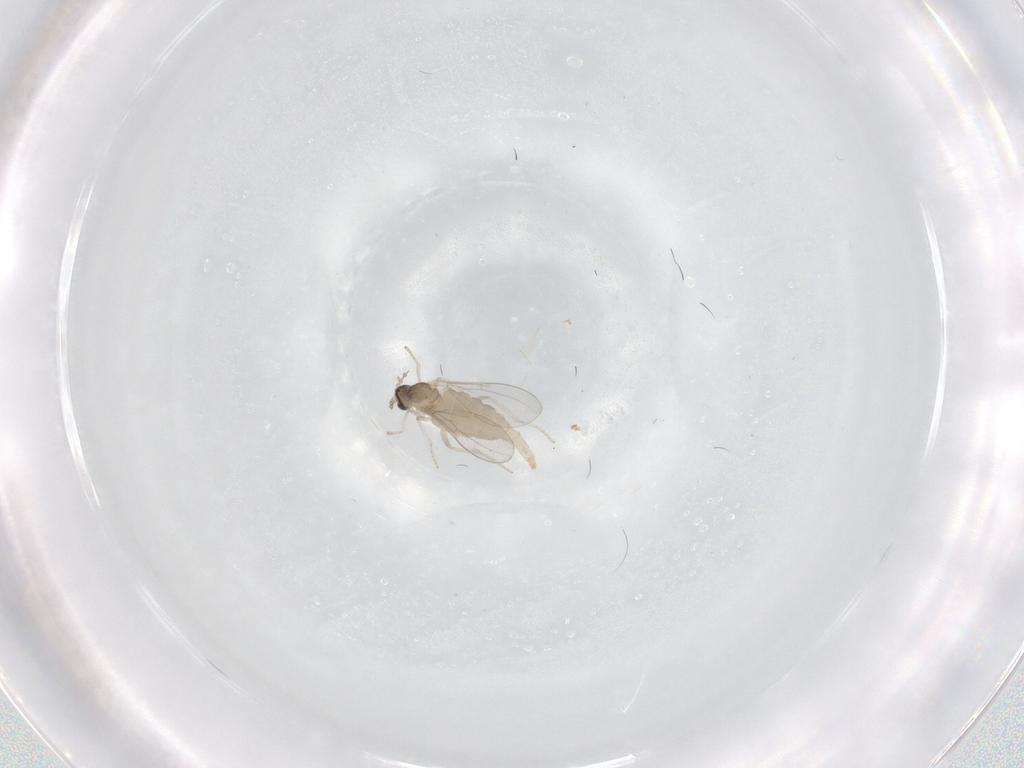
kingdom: Animalia
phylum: Arthropoda
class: Insecta
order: Diptera
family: Cecidomyiidae
